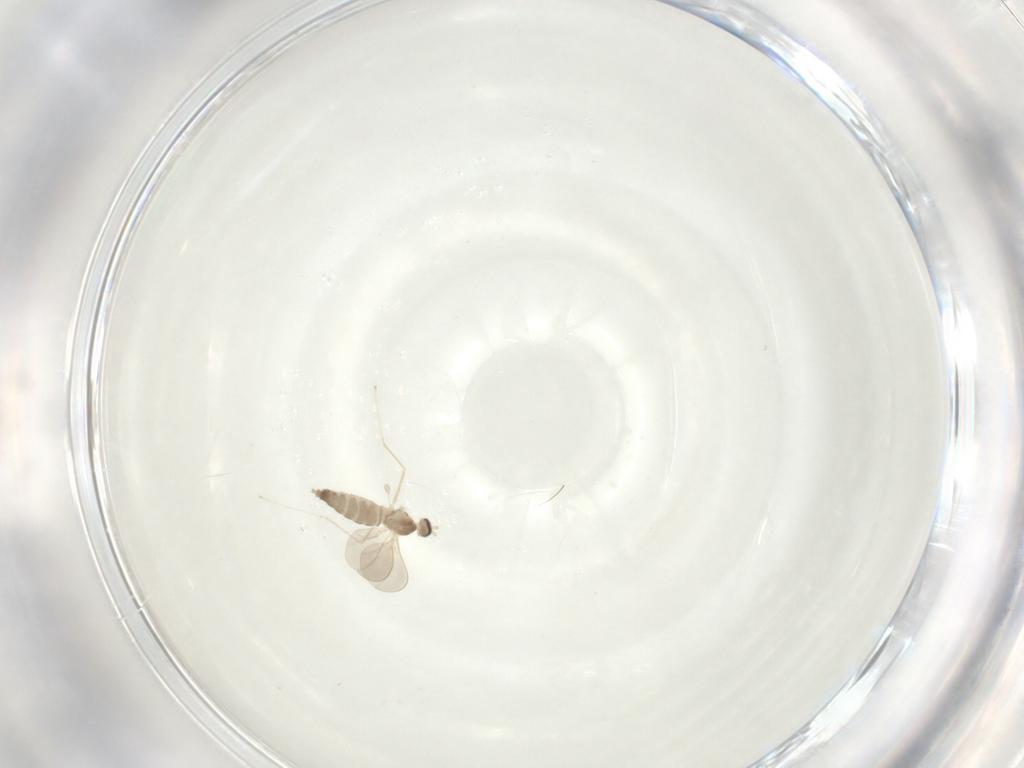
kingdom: Animalia
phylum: Arthropoda
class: Insecta
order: Diptera
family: Cecidomyiidae
